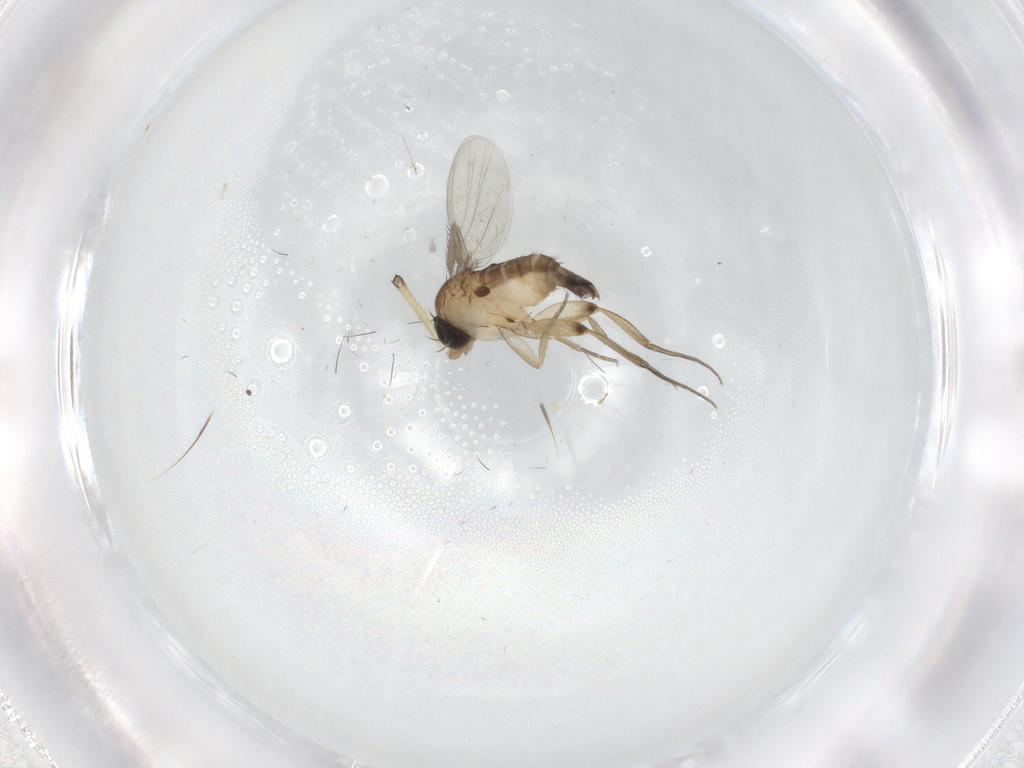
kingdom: Animalia
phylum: Arthropoda
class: Insecta
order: Diptera
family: Phoridae
